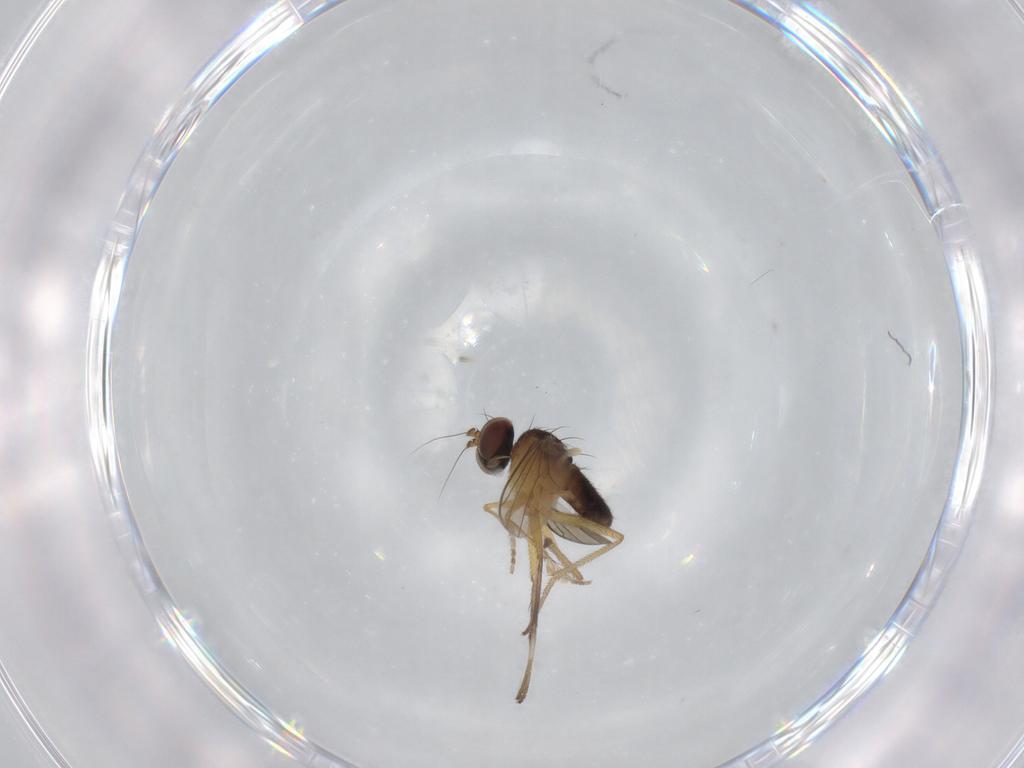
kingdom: Animalia
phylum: Arthropoda
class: Insecta
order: Diptera
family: Dolichopodidae
